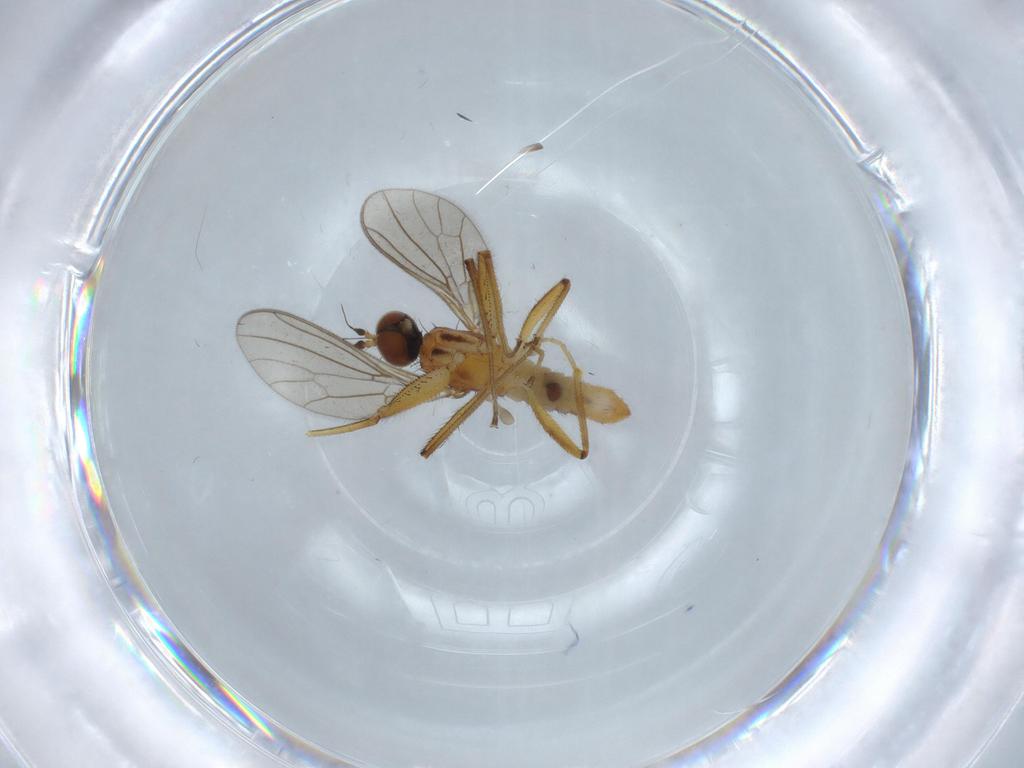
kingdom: Animalia
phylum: Arthropoda
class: Insecta
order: Diptera
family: Empididae
